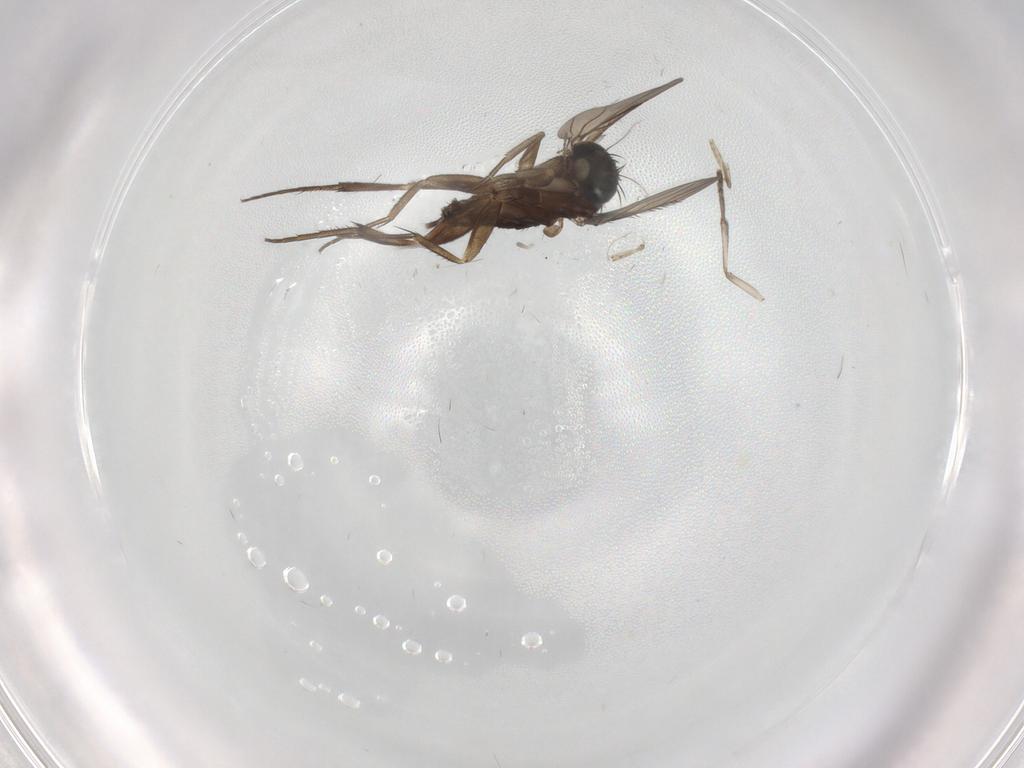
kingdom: Animalia
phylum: Arthropoda
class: Insecta
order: Diptera
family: Phoridae
